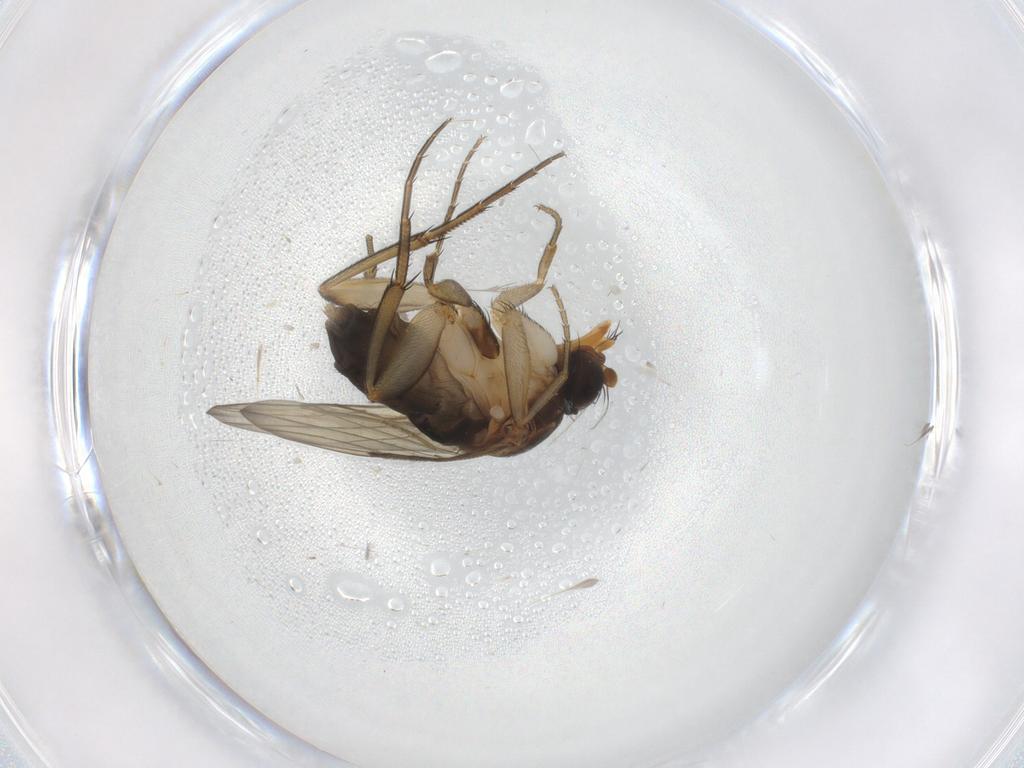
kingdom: Animalia
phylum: Arthropoda
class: Insecta
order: Diptera
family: Phoridae
